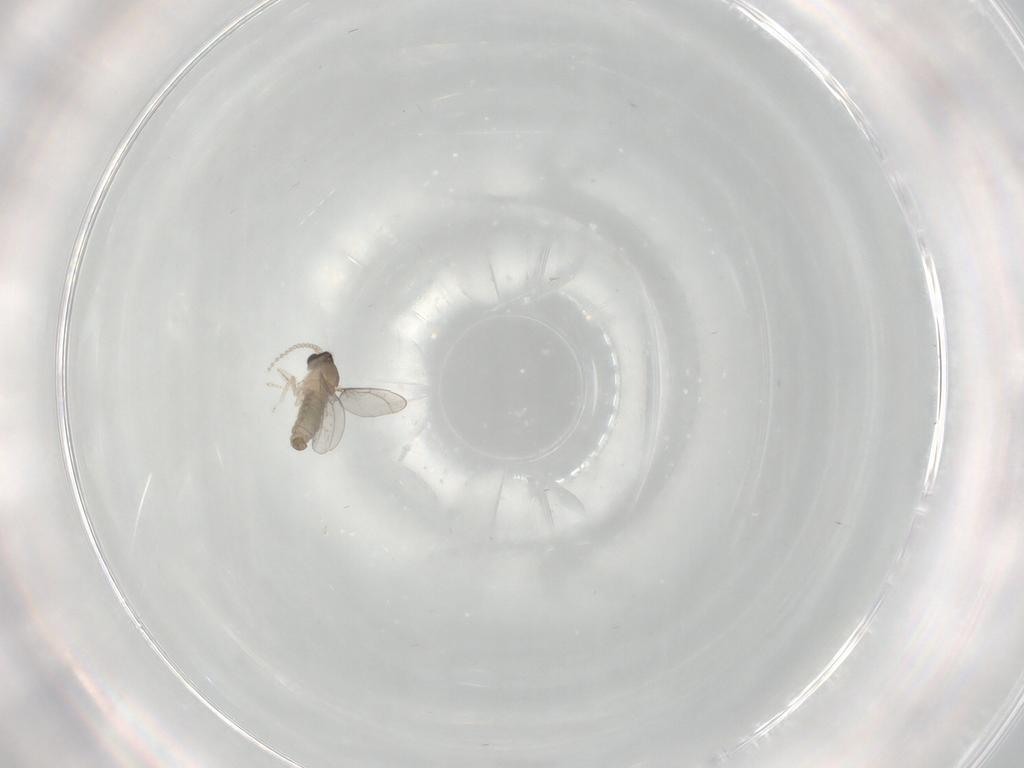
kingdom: Animalia
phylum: Arthropoda
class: Insecta
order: Diptera
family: Cecidomyiidae
